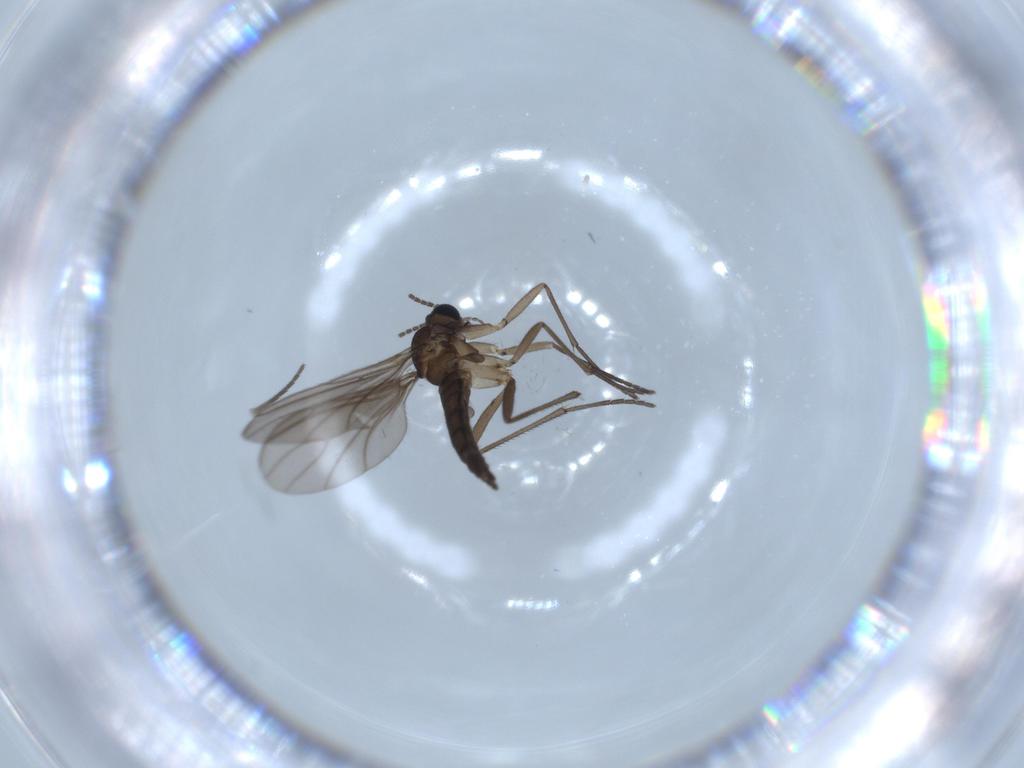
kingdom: Animalia
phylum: Arthropoda
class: Insecta
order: Diptera
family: Sciaridae
